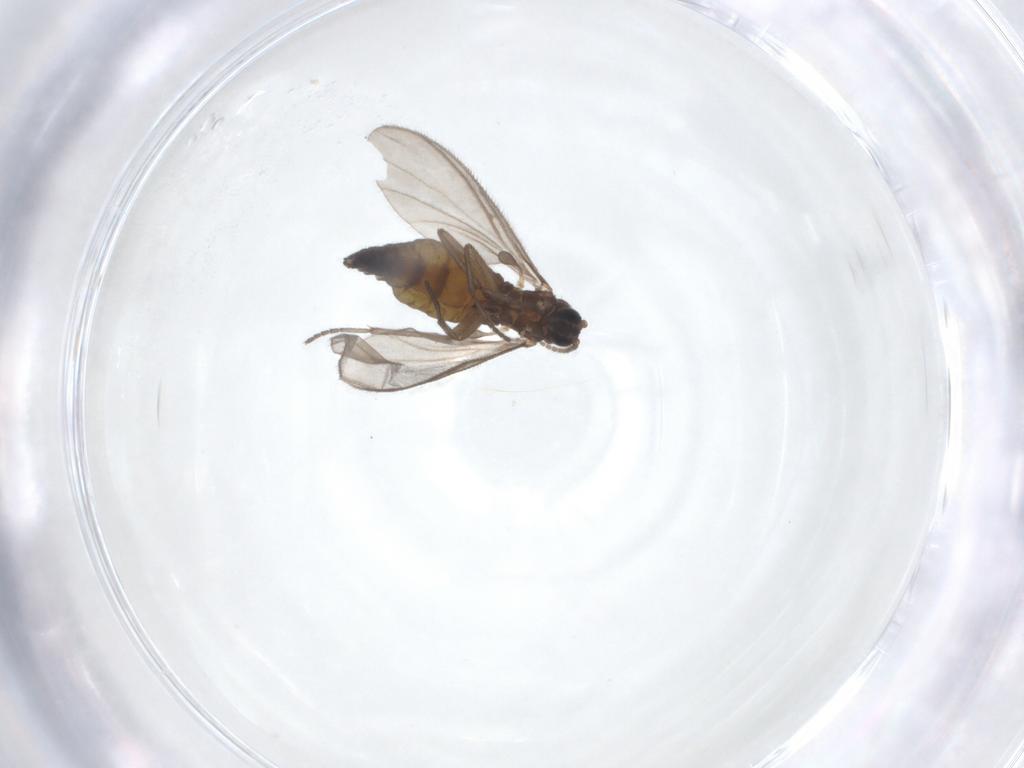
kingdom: Animalia
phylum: Arthropoda
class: Insecta
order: Diptera
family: Sciaridae
